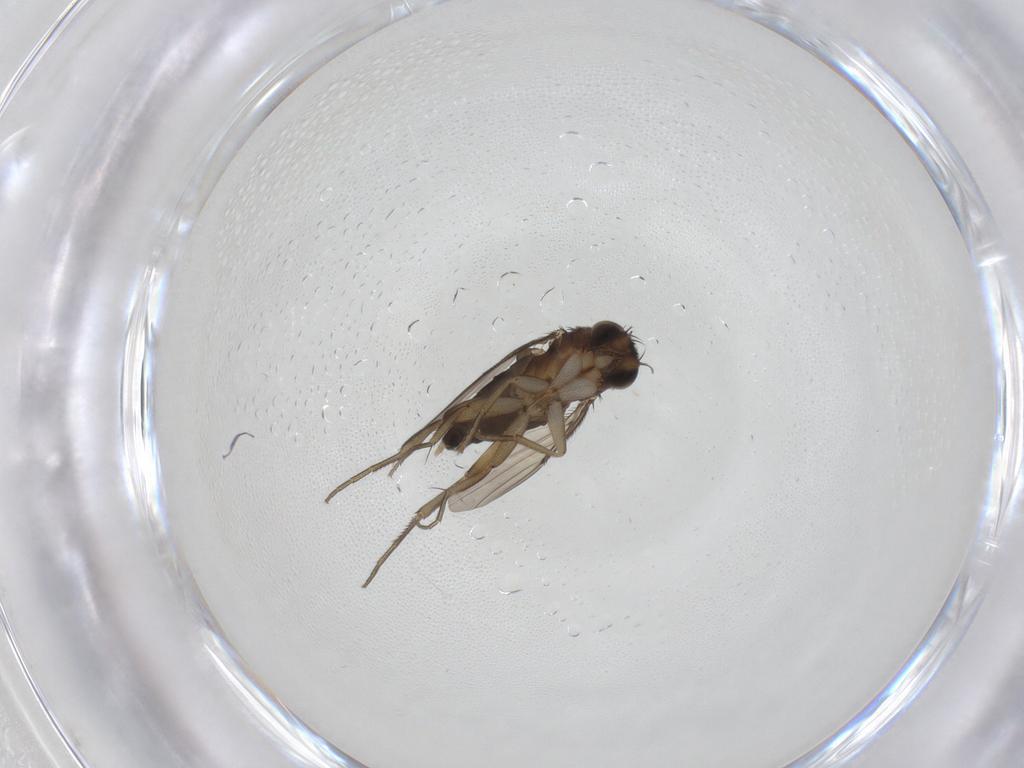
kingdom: Animalia
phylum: Arthropoda
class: Insecta
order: Diptera
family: Phoridae
